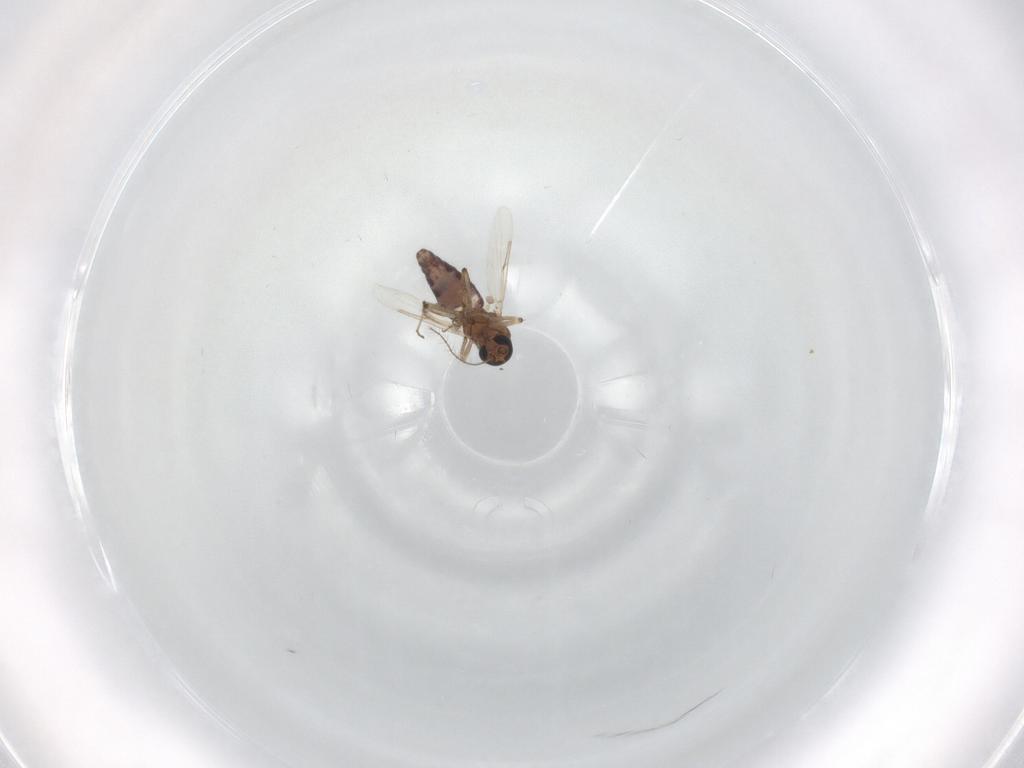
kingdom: Animalia
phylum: Arthropoda
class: Insecta
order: Diptera
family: Ceratopogonidae
